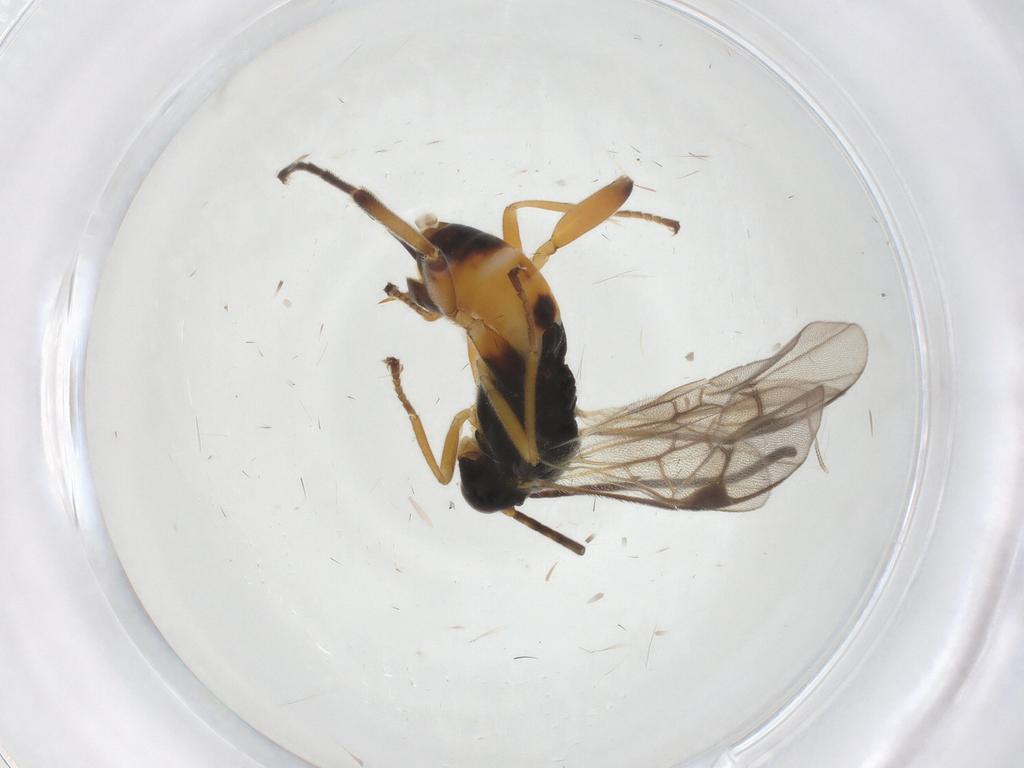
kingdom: Animalia
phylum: Arthropoda
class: Insecta
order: Hymenoptera
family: Braconidae
